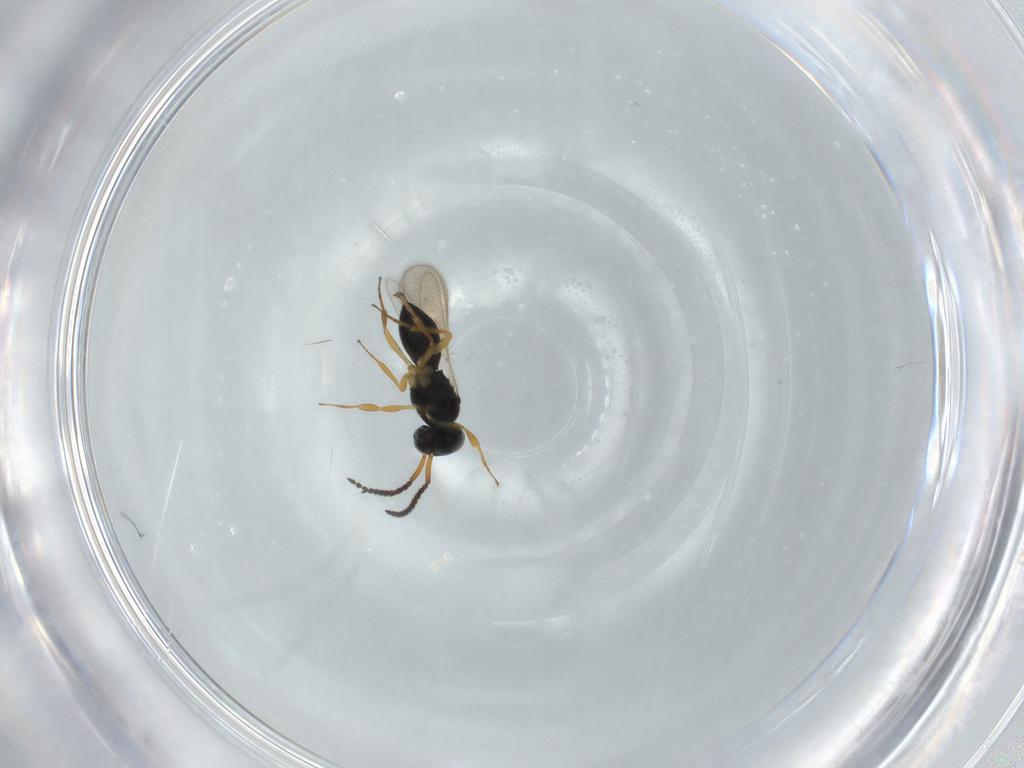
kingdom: Animalia
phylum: Arthropoda
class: Insecta
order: Hymenoptera
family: Scelionidae
